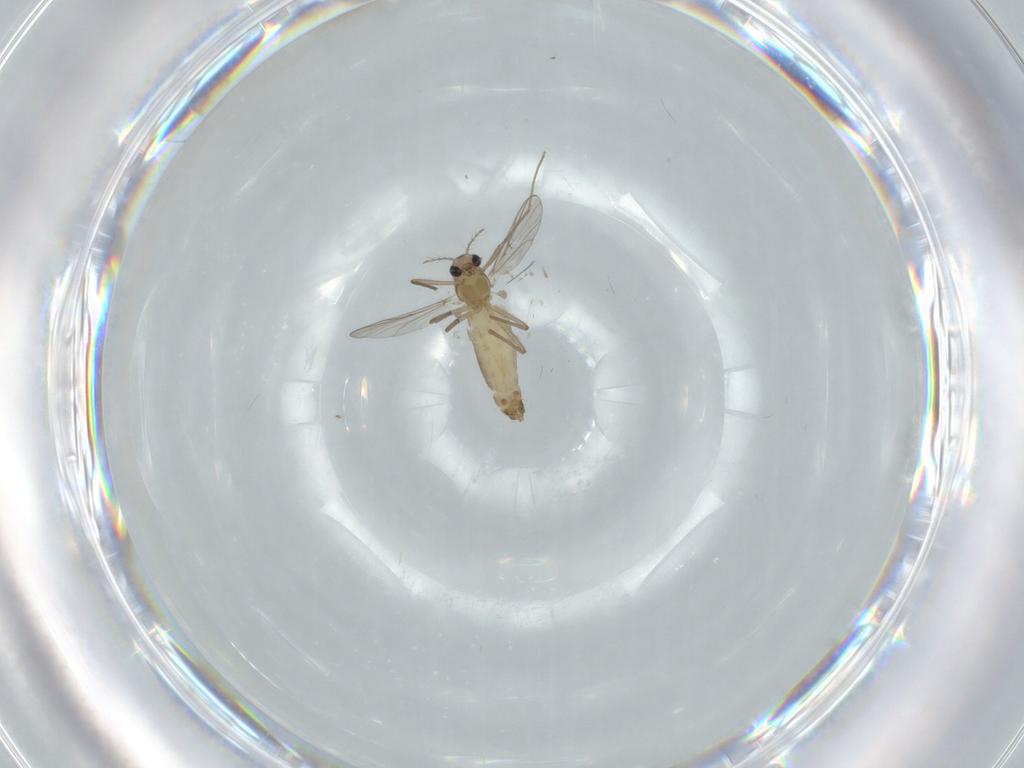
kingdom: Animalia
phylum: Arthropoda
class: Insecta
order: Diptera
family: Chironomidae
